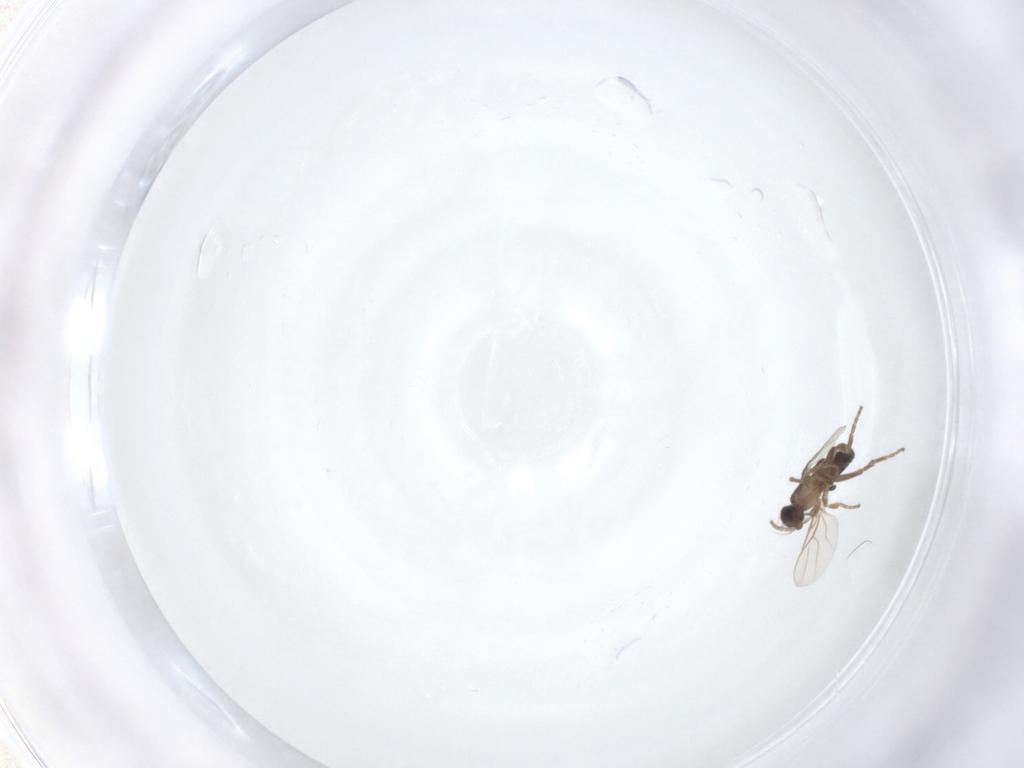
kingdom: Animalia
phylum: Arthropoda
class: Insecta
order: Diptera
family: Phoridae
